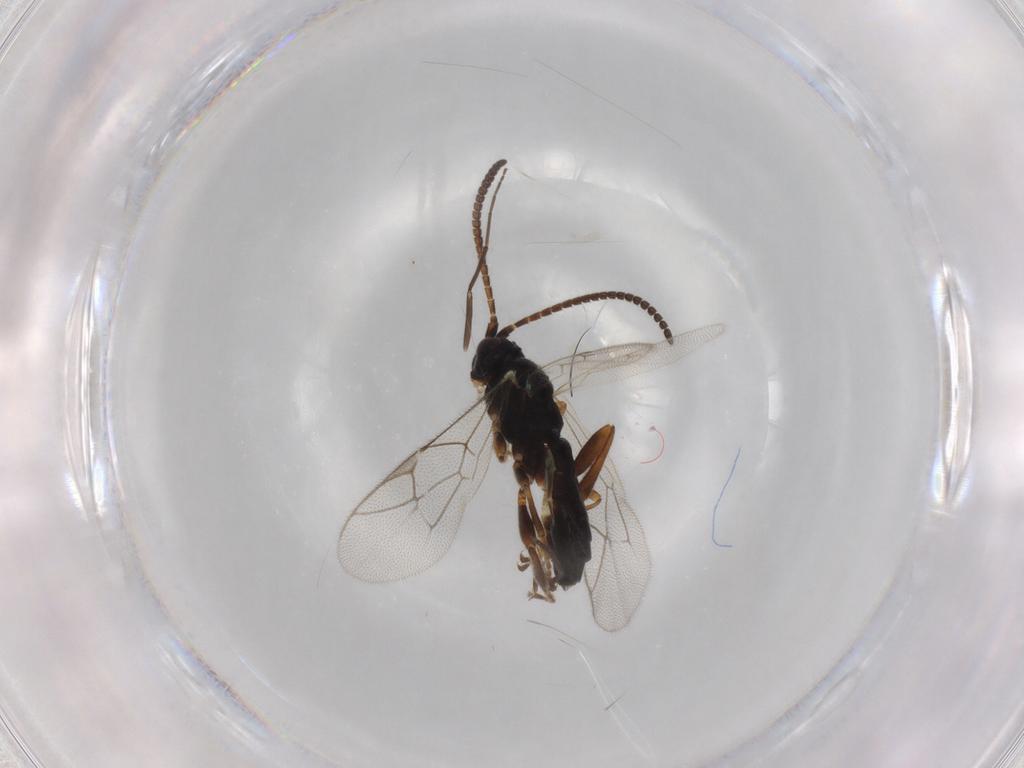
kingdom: Animalia
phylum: Arthropoda
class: Insecta
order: Hymenoptera
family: Ichneumonidae
